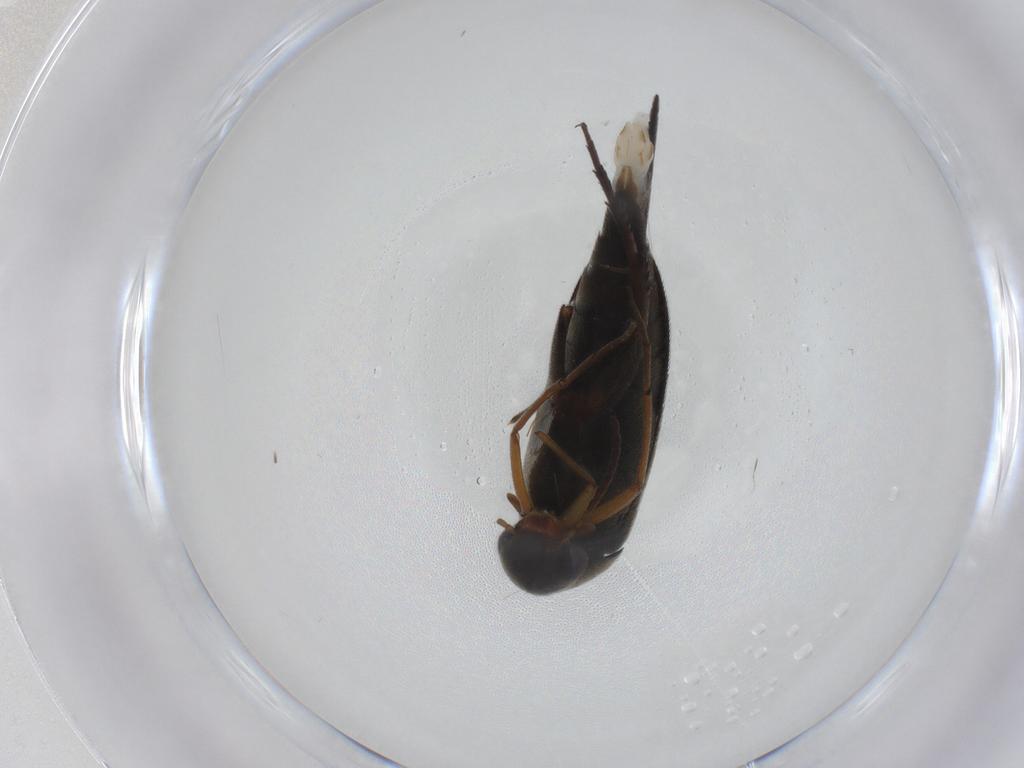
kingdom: Animalia
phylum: Arthropoda
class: Insecta
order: Coleoptera
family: Mordellidae
